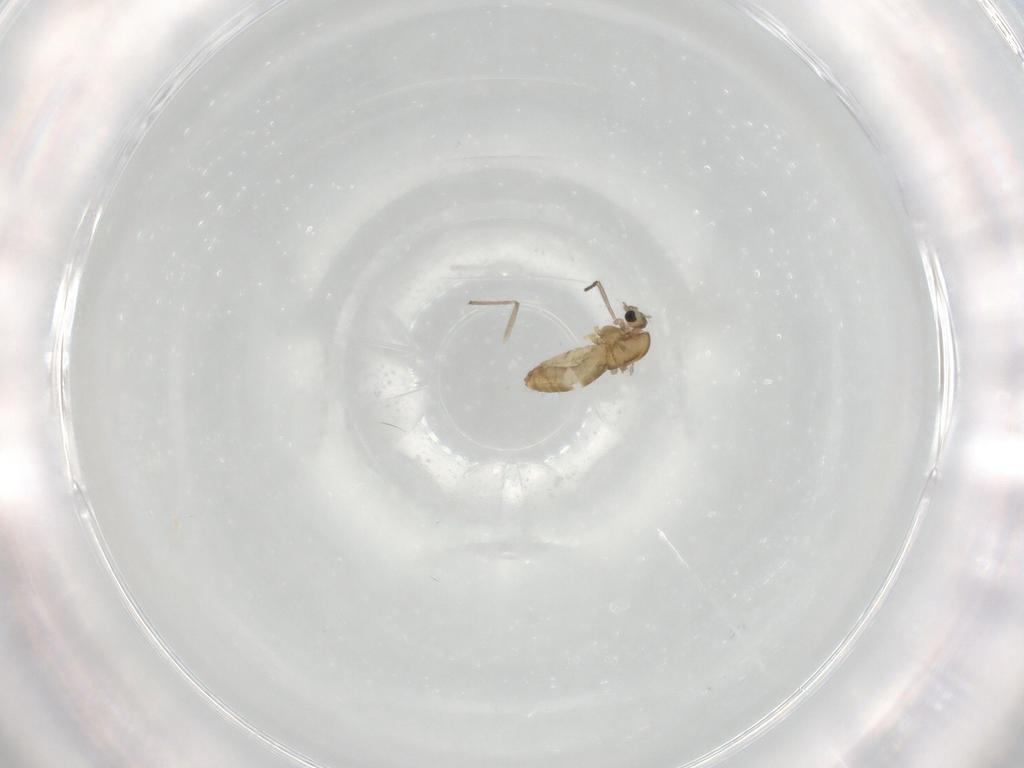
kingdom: Animalia
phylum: Arthropoda
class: Insecta
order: Diptera
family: Chironomidae
